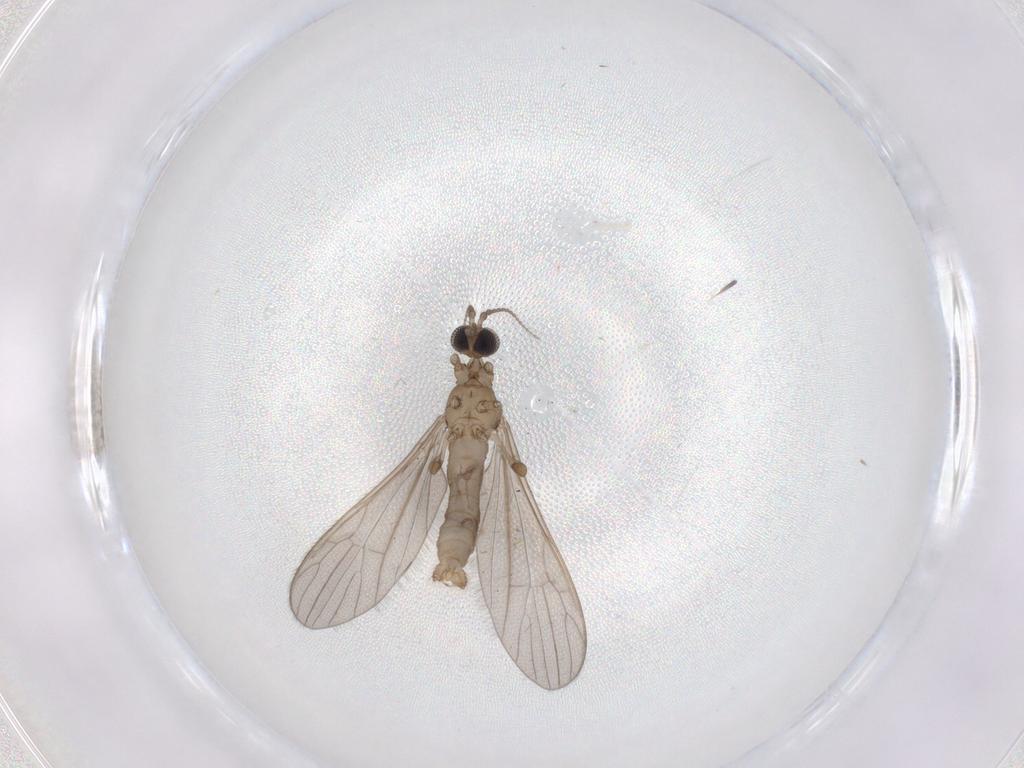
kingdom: Animalia
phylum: Arthropoda
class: Insecta
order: Diptera
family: Cecidomyiidae
